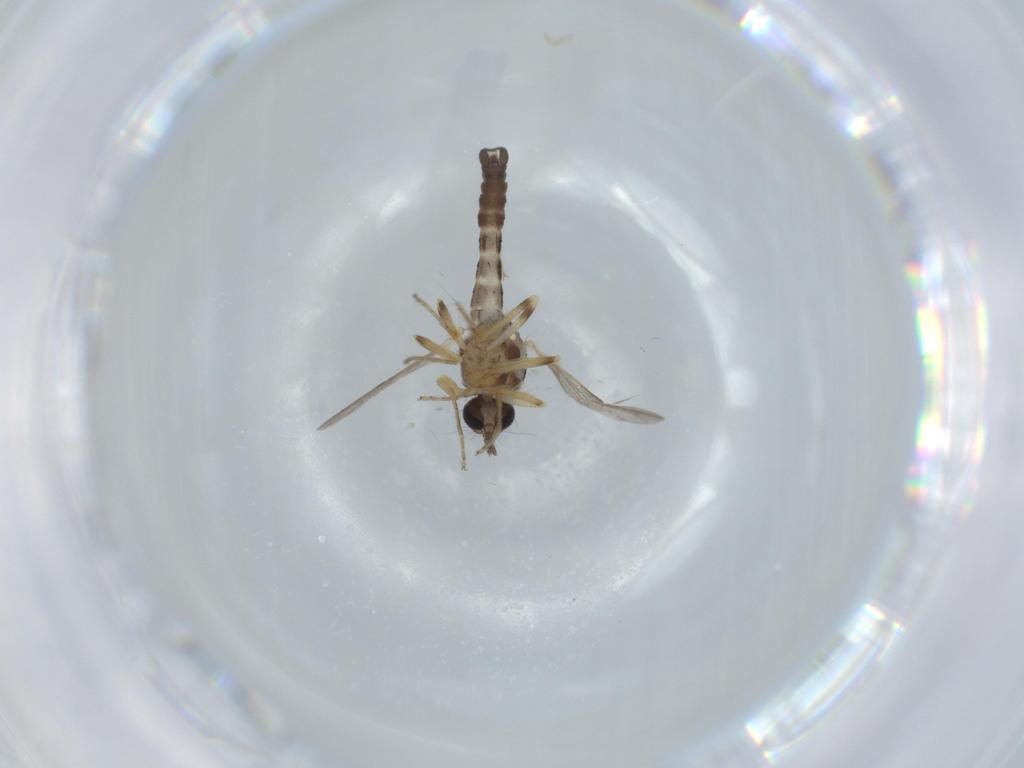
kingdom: Animalia
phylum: Arthropoda
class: Insecta
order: Diptera
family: Ceratopogonidae
